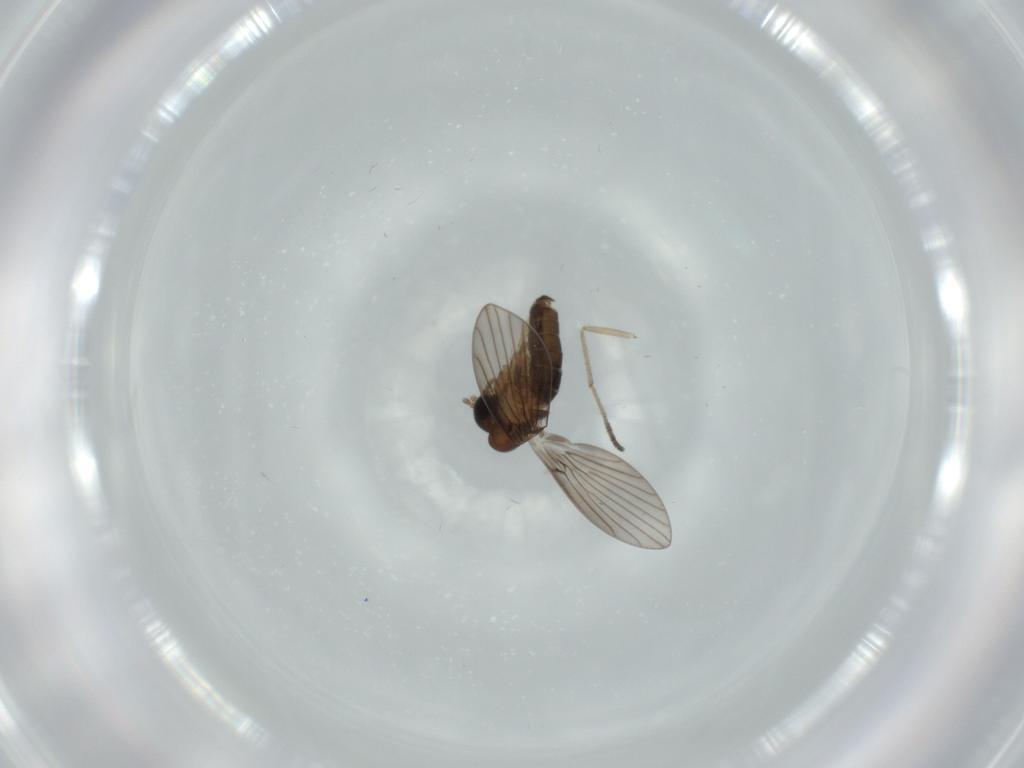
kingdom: Animalia
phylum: Arthropoda
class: Insecta
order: Diptera
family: Psychodidae
